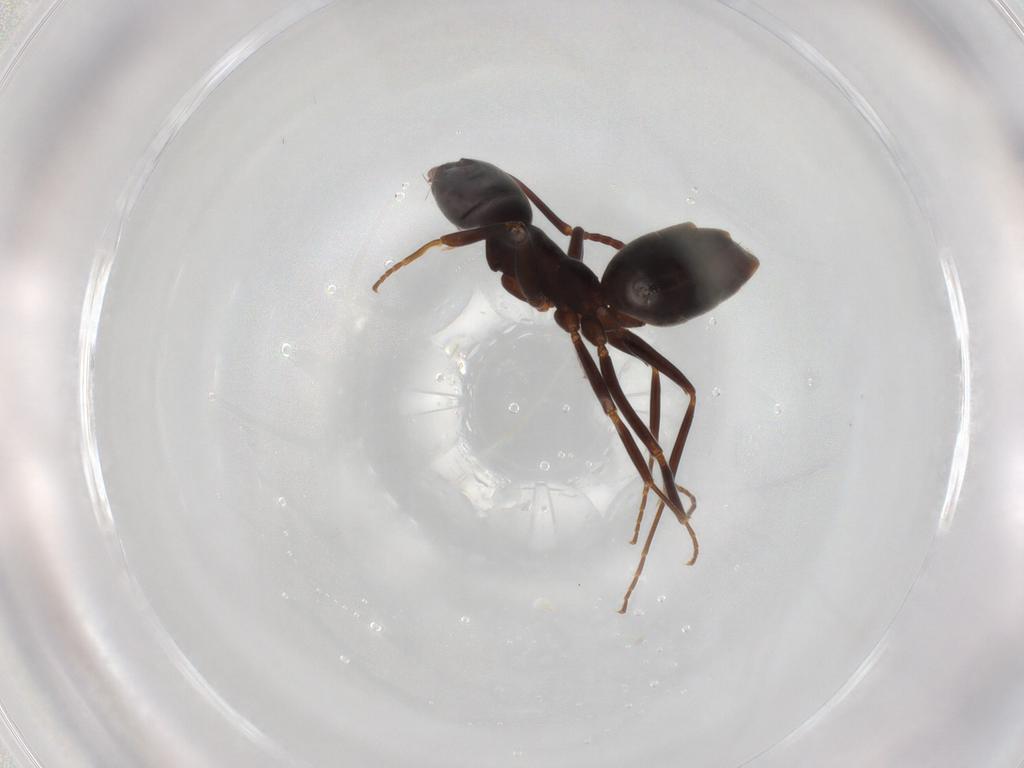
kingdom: Animalia
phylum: Arthropoda
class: Insecta
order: Hymenoptera
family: Formicidae
